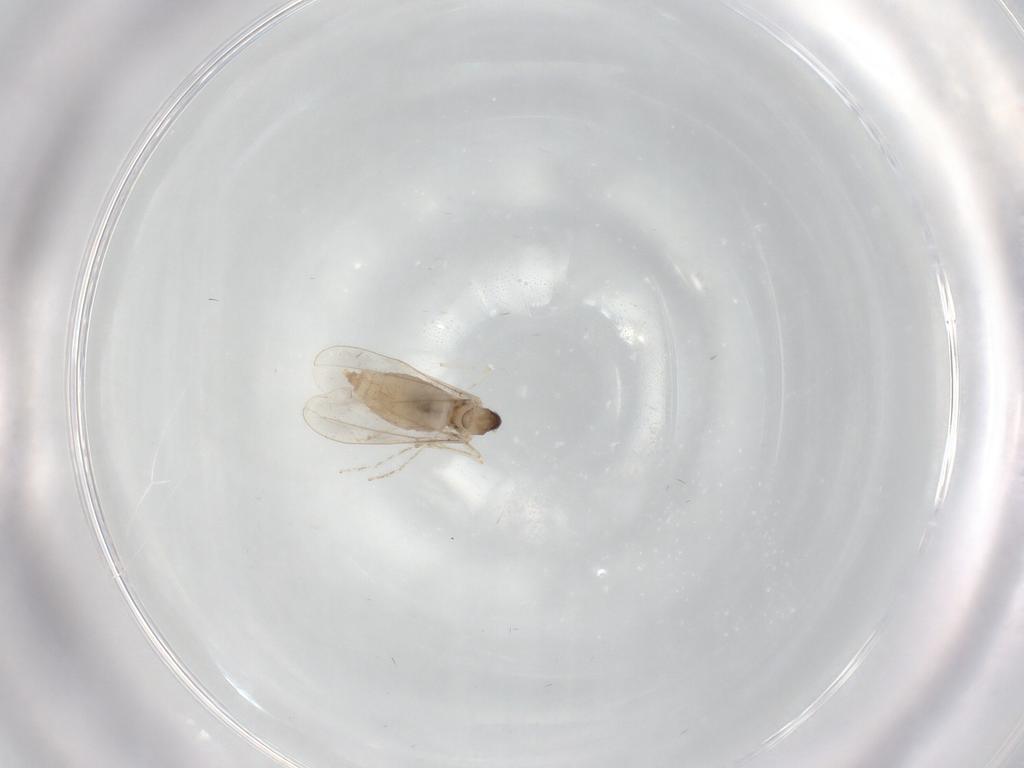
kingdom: Animalia
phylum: Arthropoda
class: Insecta
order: Diptera
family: Cecidomyiidae
